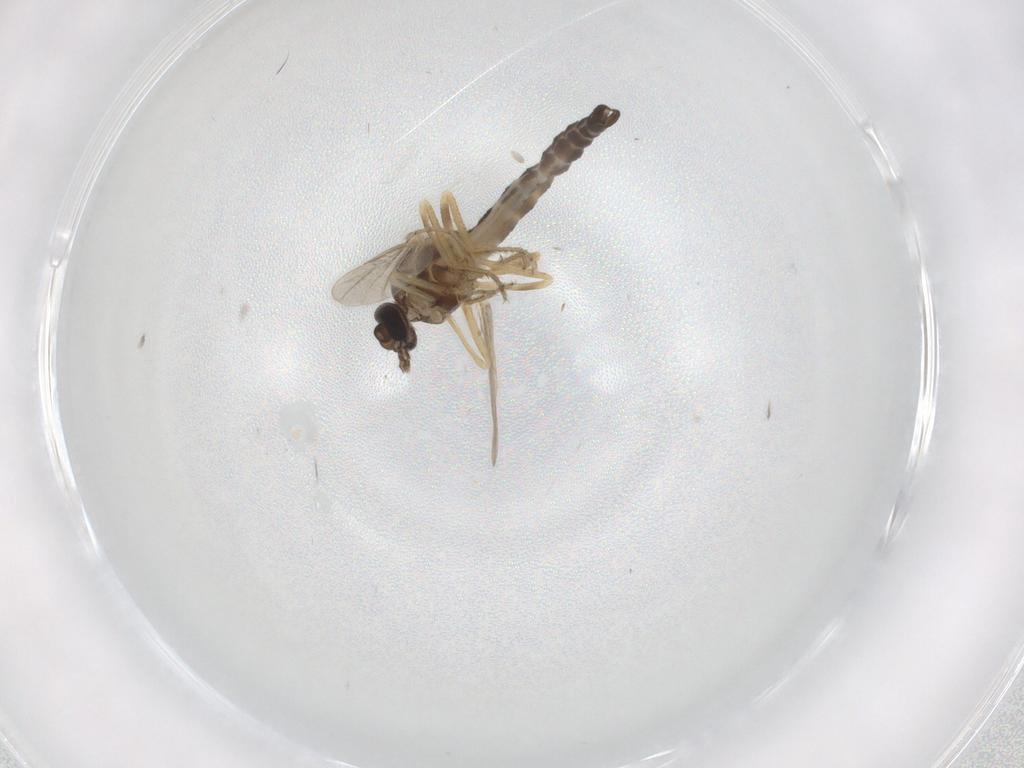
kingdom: Animalia
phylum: Arthropoda
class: Insecta
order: Diptera
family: Ceratopogonidae
